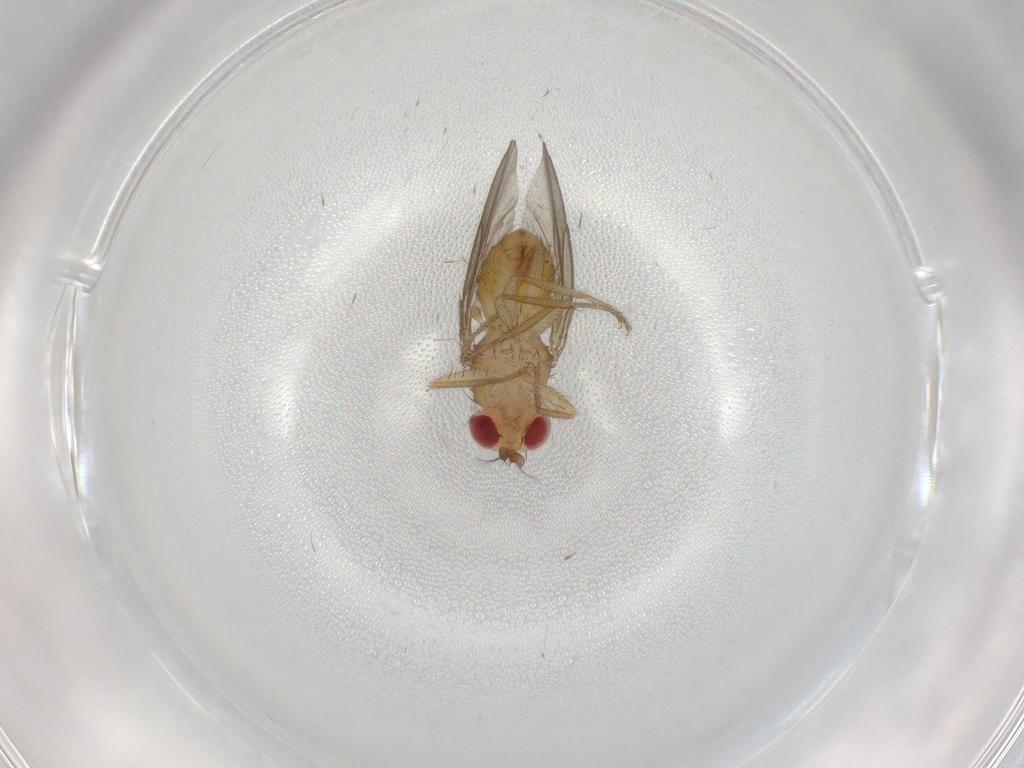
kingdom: Animalia
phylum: Arthropoda
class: Insecta
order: Diptera
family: Drosophilidae
